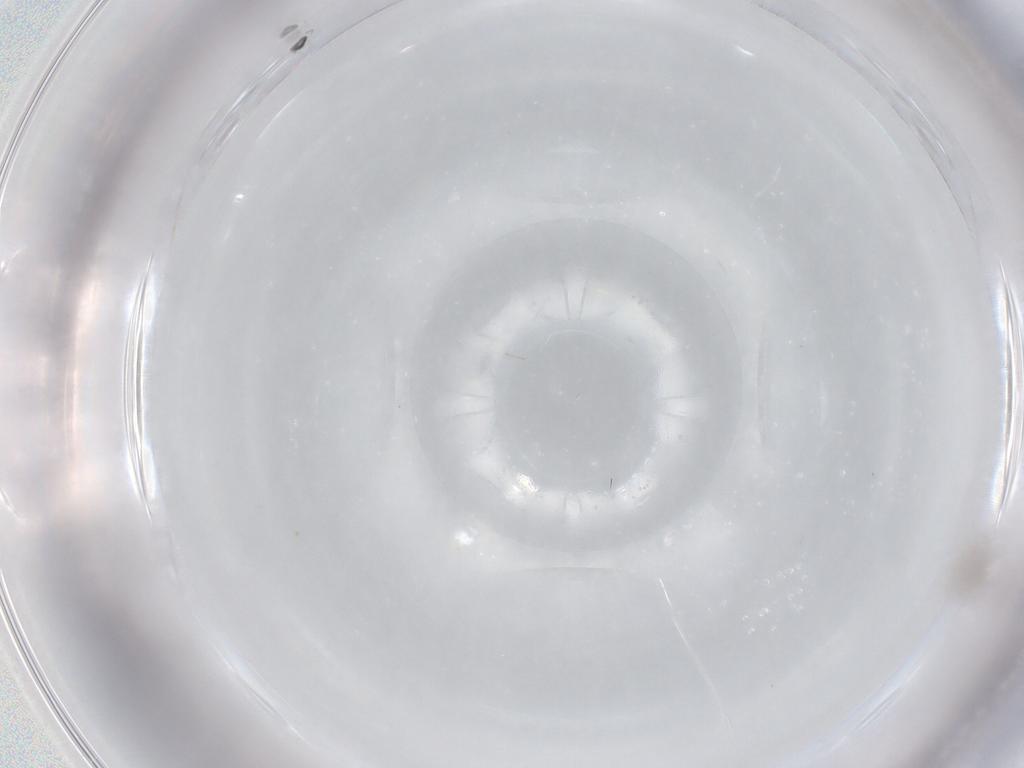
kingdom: Animalia
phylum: Arthropoda
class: Insecta
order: Diptera
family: Cecidomyiidae
